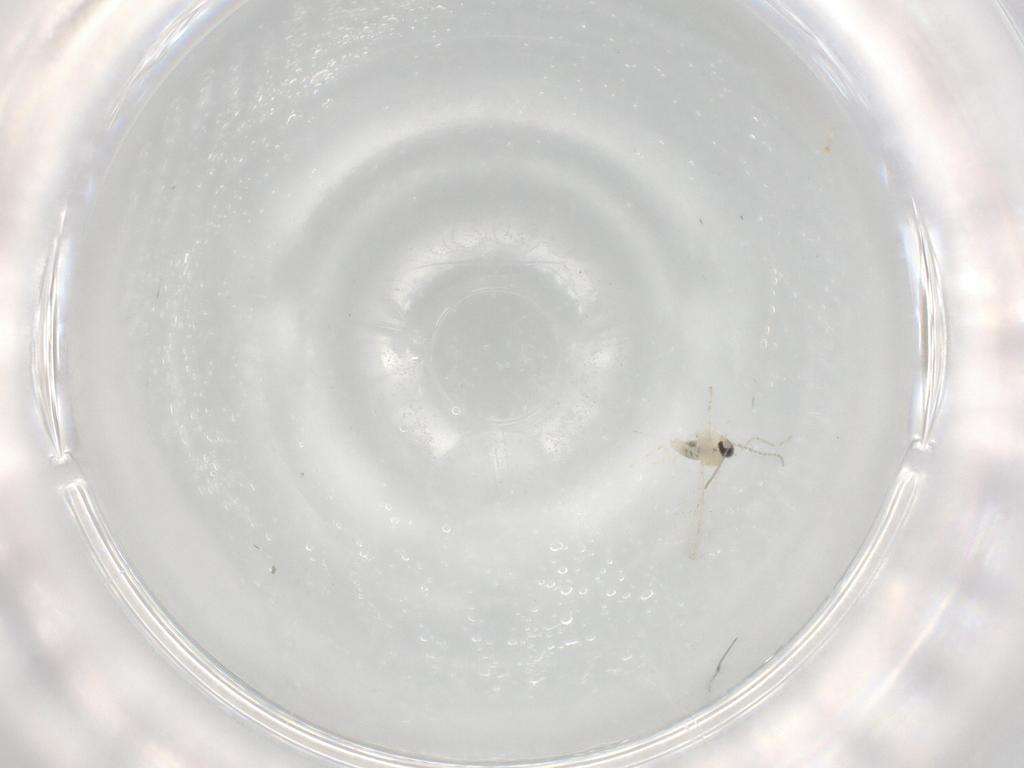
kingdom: Animalia
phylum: Arthropoda
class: Insecta
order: Diptera
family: Cecidomyiidae
